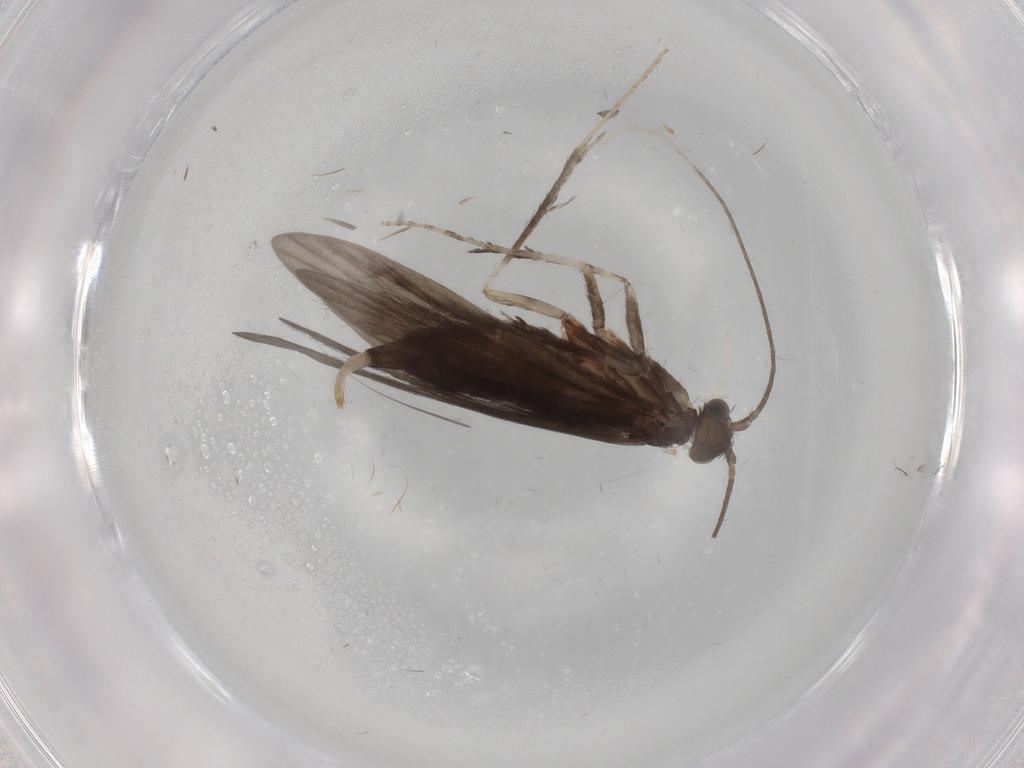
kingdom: Animalia
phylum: Arthropoda
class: Insecta
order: Trichoptera
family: Xiphocentronidae
